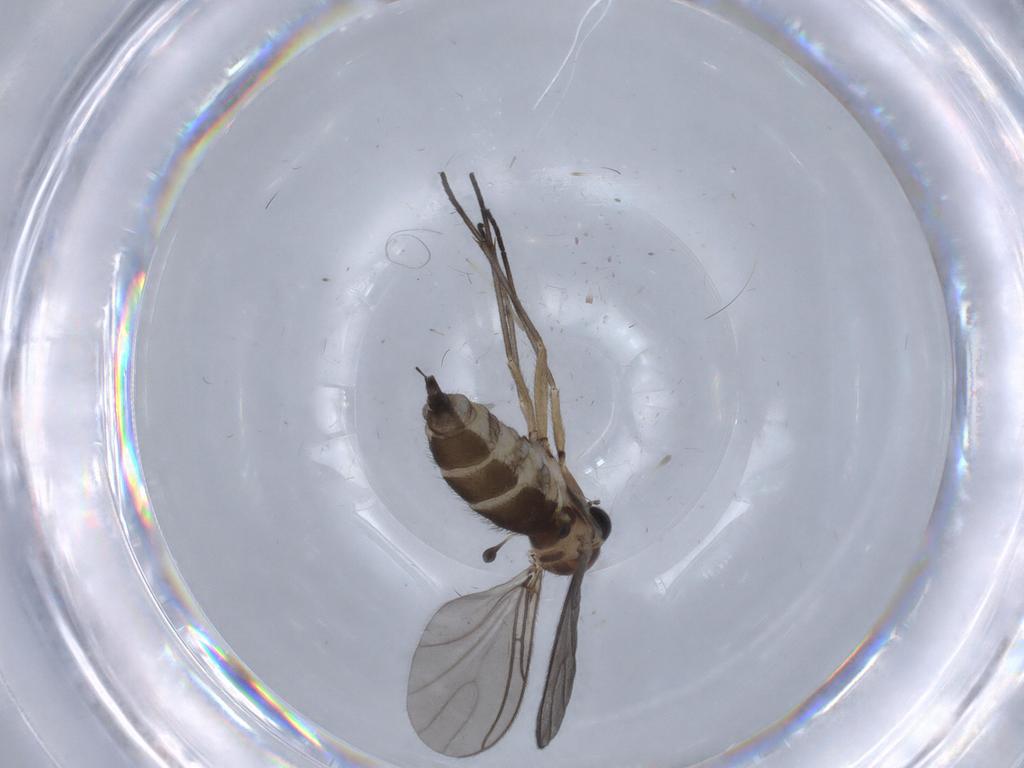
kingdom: Animalia
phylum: Arthropoda
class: Insecta
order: Diptera
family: Sciaridae
